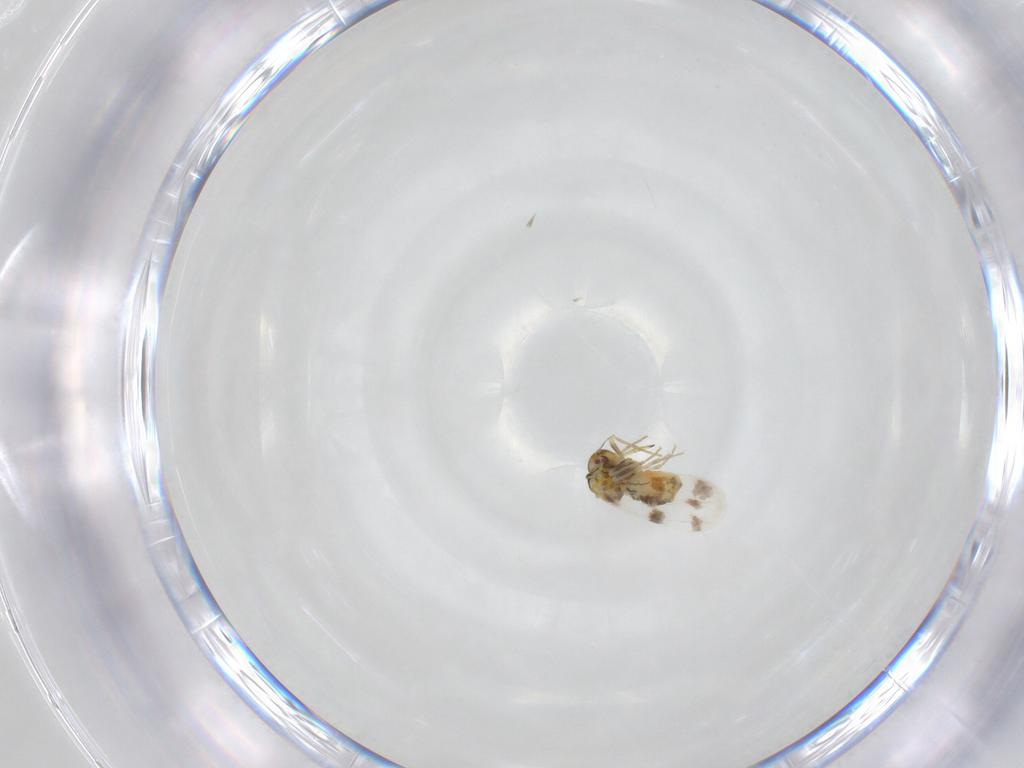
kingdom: Animalia
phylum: Arthropoda
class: Insecta
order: Hemiptera
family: Aleyrodidae
